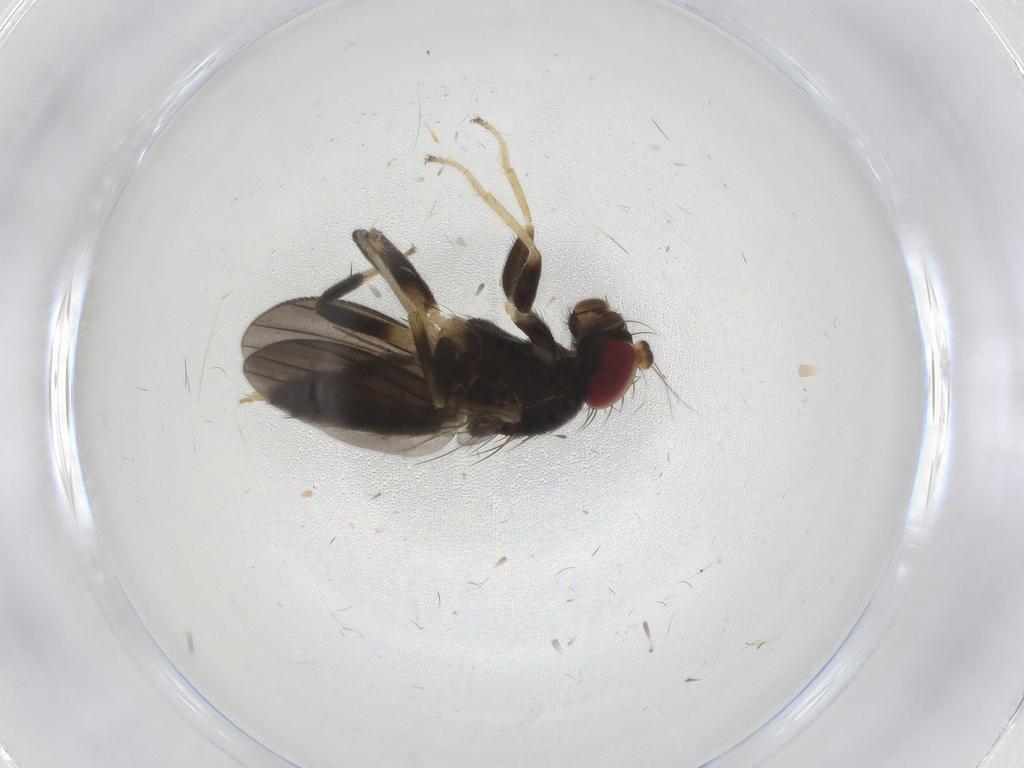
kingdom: Animalia
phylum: Arthropoda
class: Insecta
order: Diptera
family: Clusiidae
